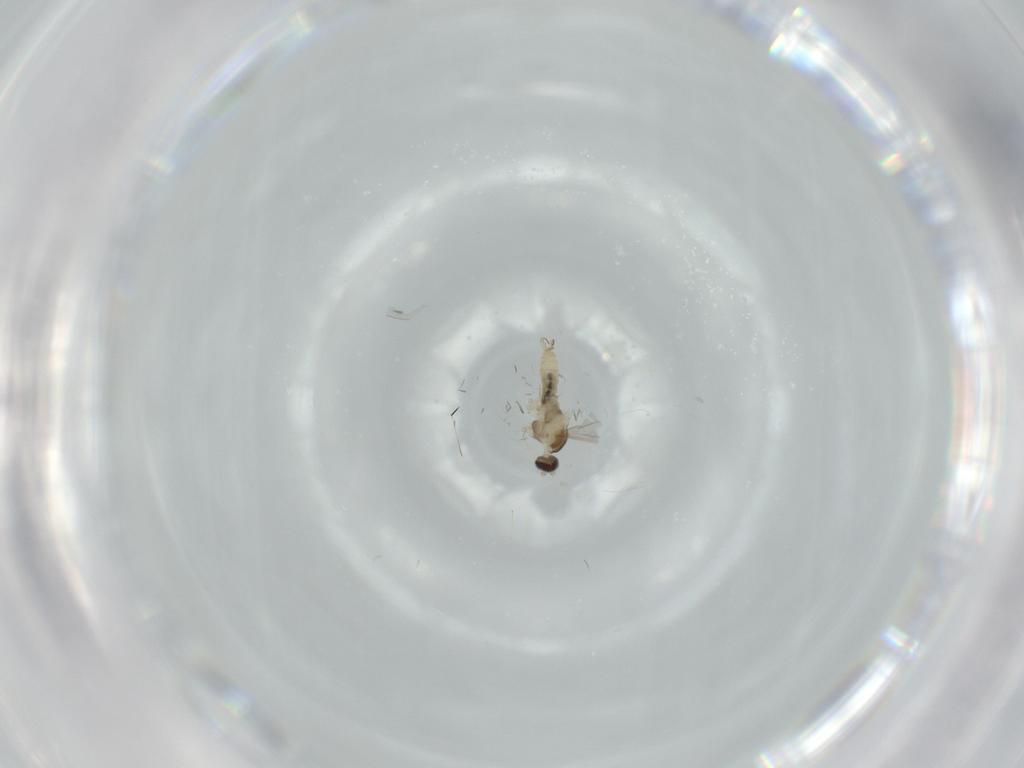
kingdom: Animalia
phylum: Arthropoda
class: Insecta
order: Diptera
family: Cecidomyiidae
